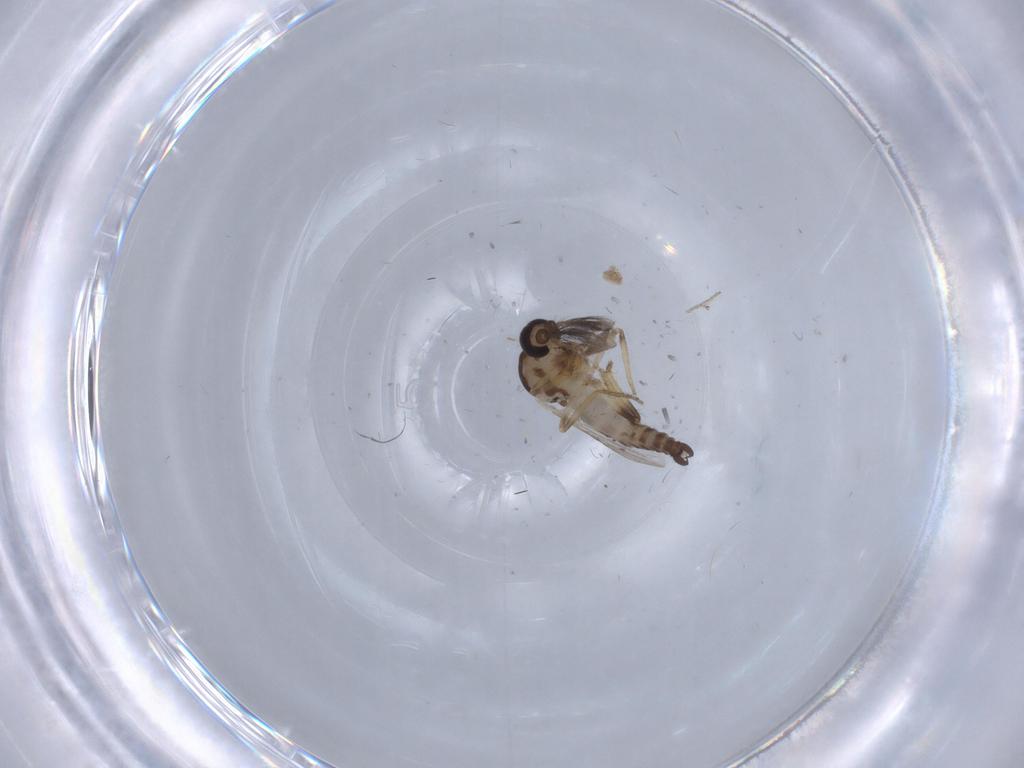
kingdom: Animalia
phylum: Arthropoda
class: Insecta
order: Diptera
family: Ceratopogonidae
